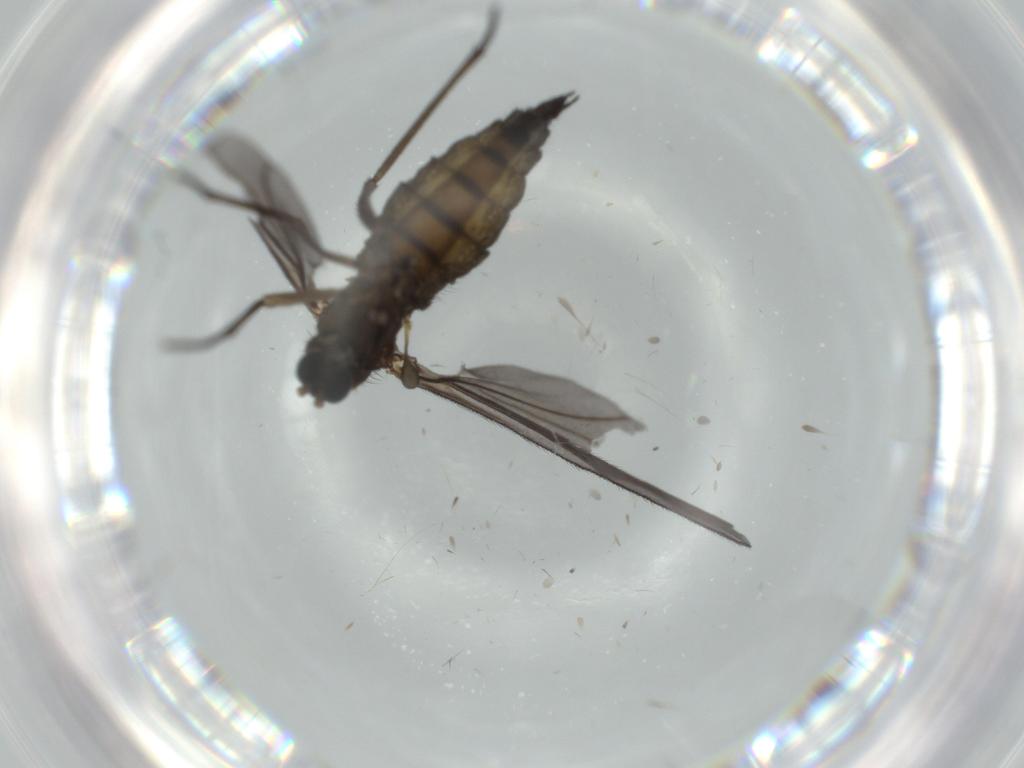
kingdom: Animalia
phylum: Arthropoda
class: Insecta
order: Diptera
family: Sciaridae
